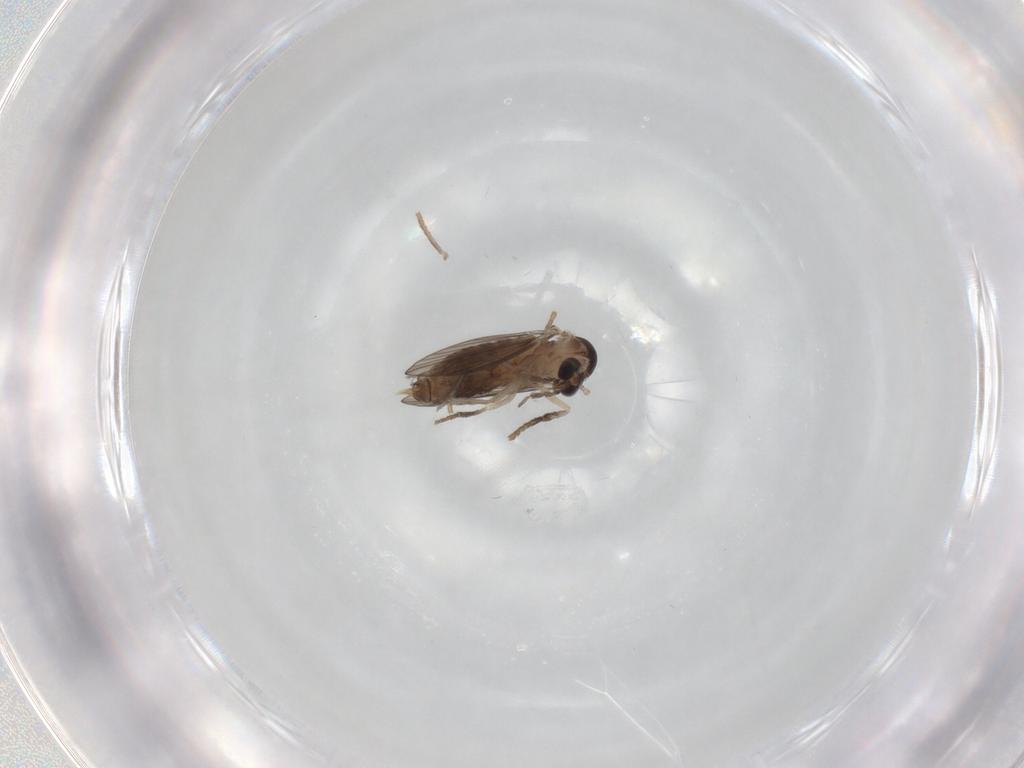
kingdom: Animalia
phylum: Arthropoda
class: Insecta
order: Diptera
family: Psychodidae
